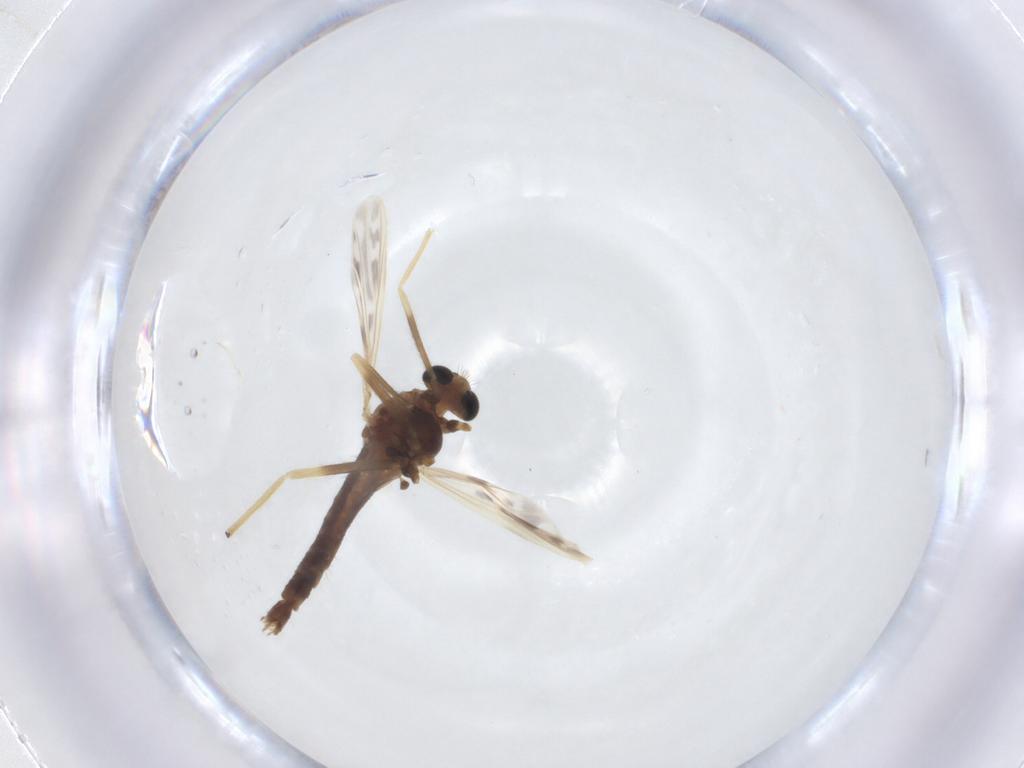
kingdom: Animalia
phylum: Arthropoda
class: Insecta
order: Diptera
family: Chironomidae
